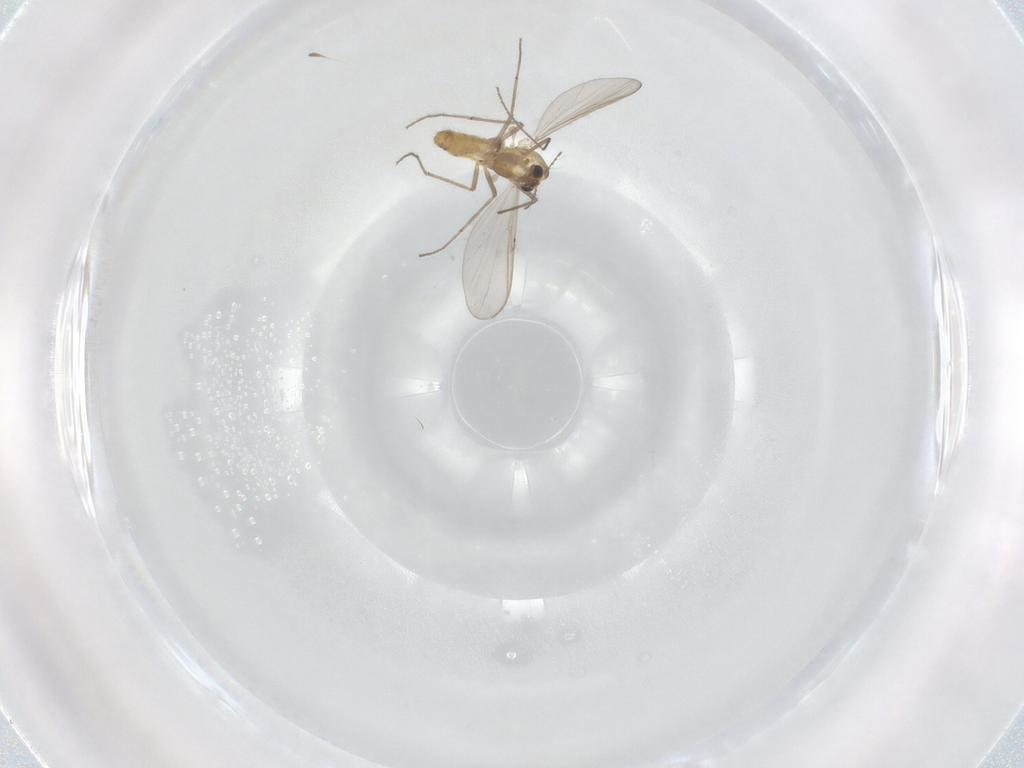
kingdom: Animalia
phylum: Arthropoda
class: Insecta
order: Diptera
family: Chironomidae
